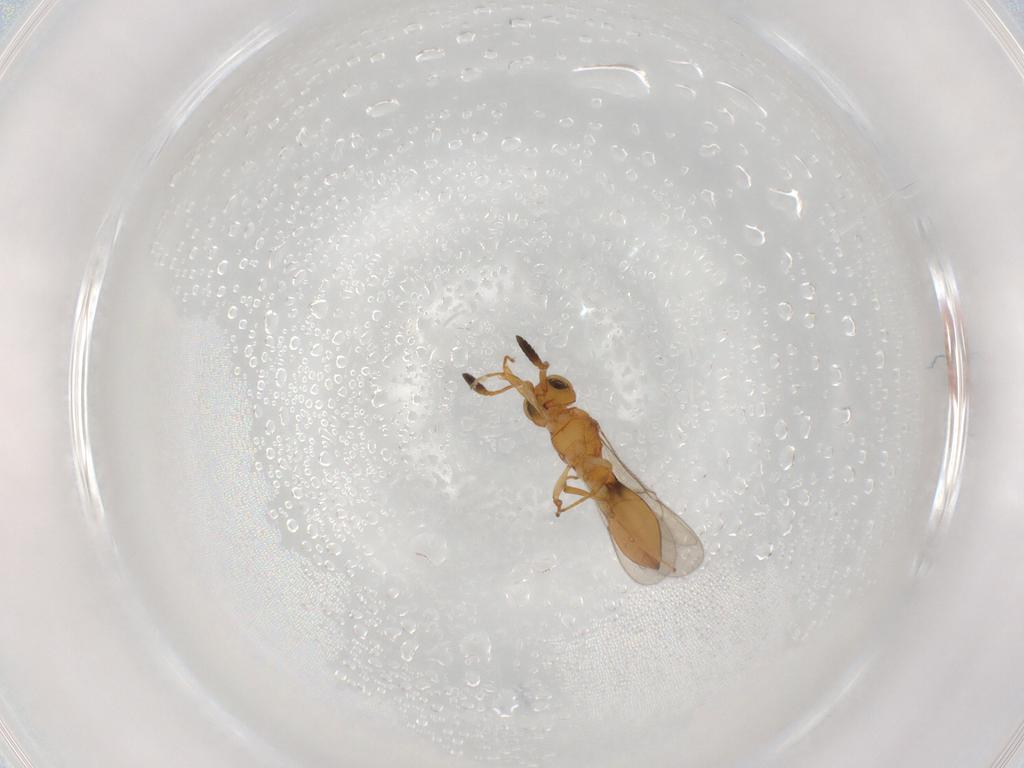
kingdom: Animalia
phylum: Arthropoda
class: Insecta
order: Hymenoptera
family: Scelionidae
